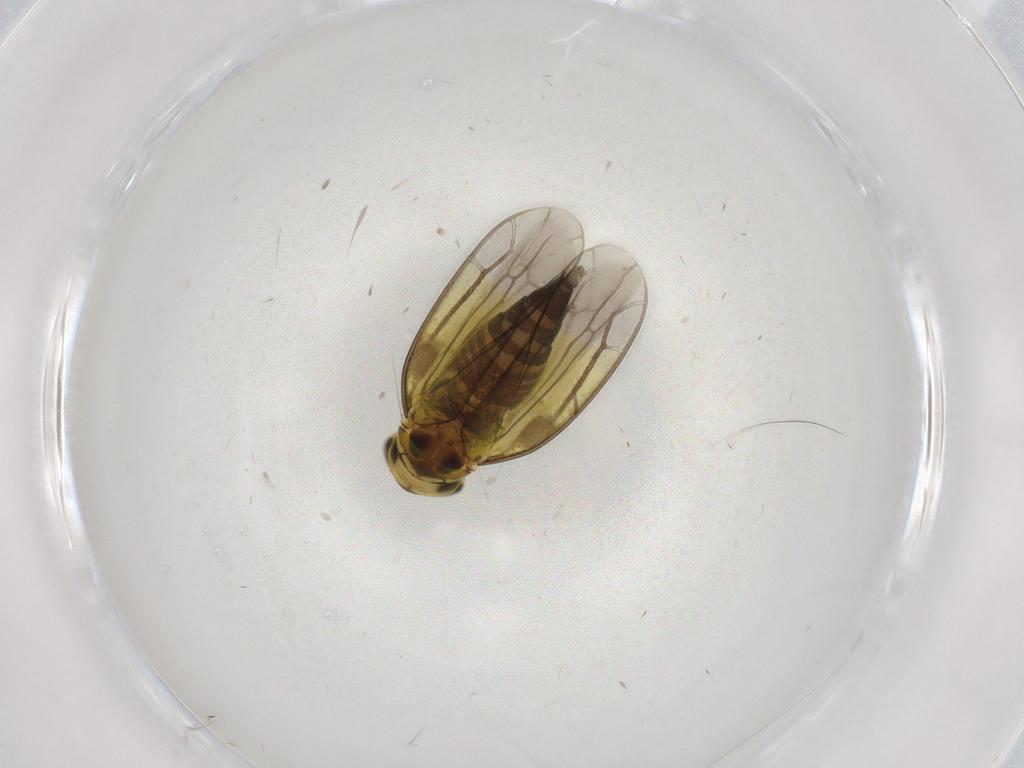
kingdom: Animalia
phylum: Arthropoda
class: Insecta
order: Hemiptera
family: Cicadellidae
